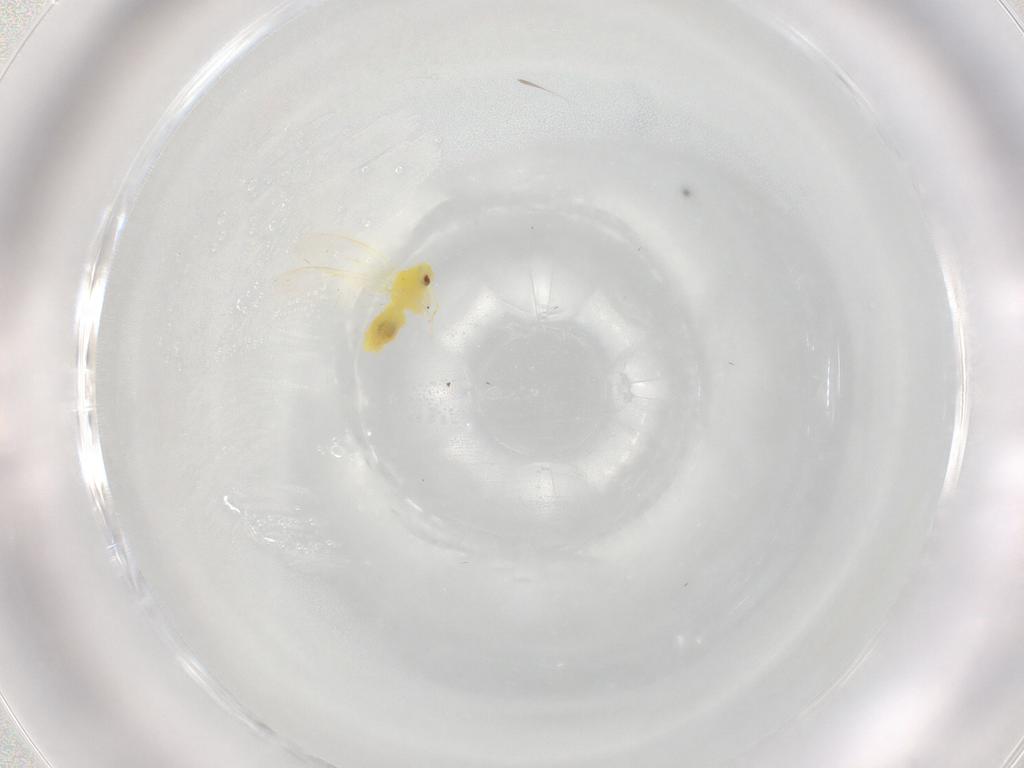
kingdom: Animalia
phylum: Arthropoda
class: Insecta
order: Hemiptera
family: Aleyrodidae
